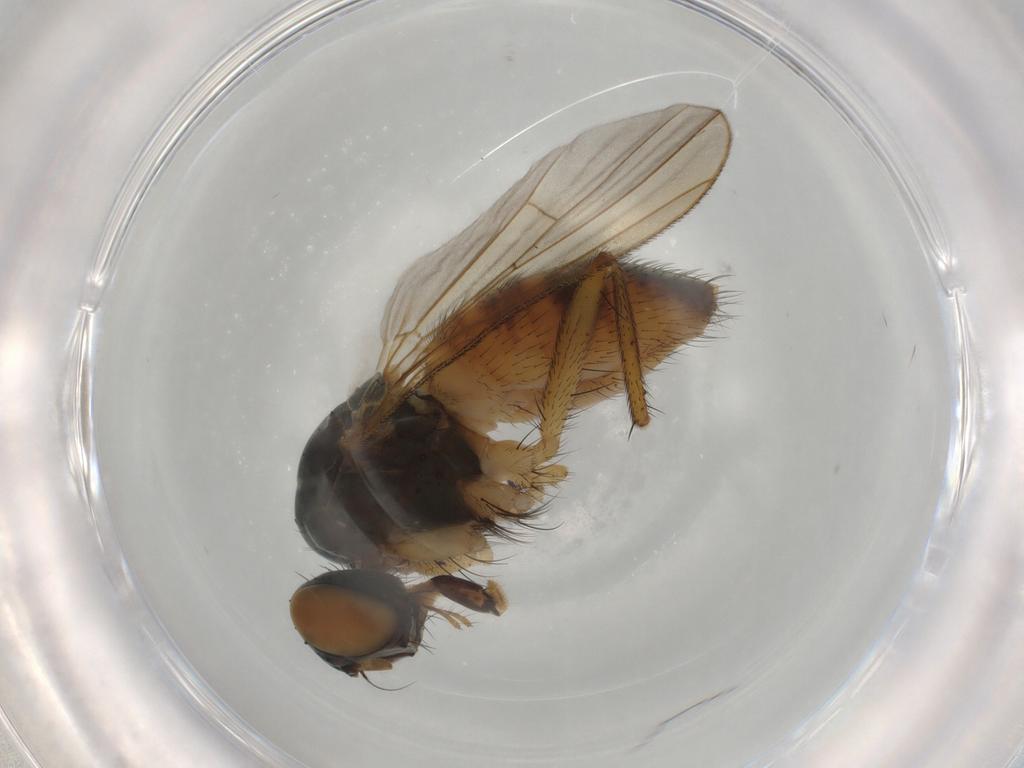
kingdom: Animalia
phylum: Arthropoda
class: Insecta
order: Diptera
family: Muscidae
